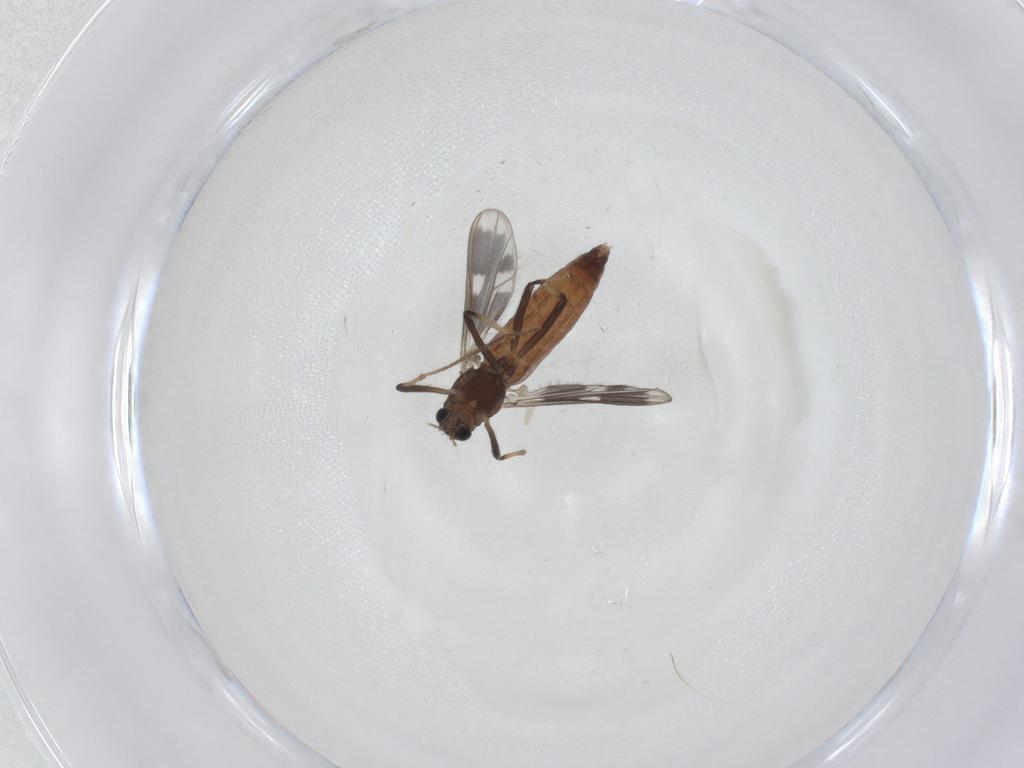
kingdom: Animalia
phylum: Arthropoda
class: Insecta
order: Diptera
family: Chironomidae
